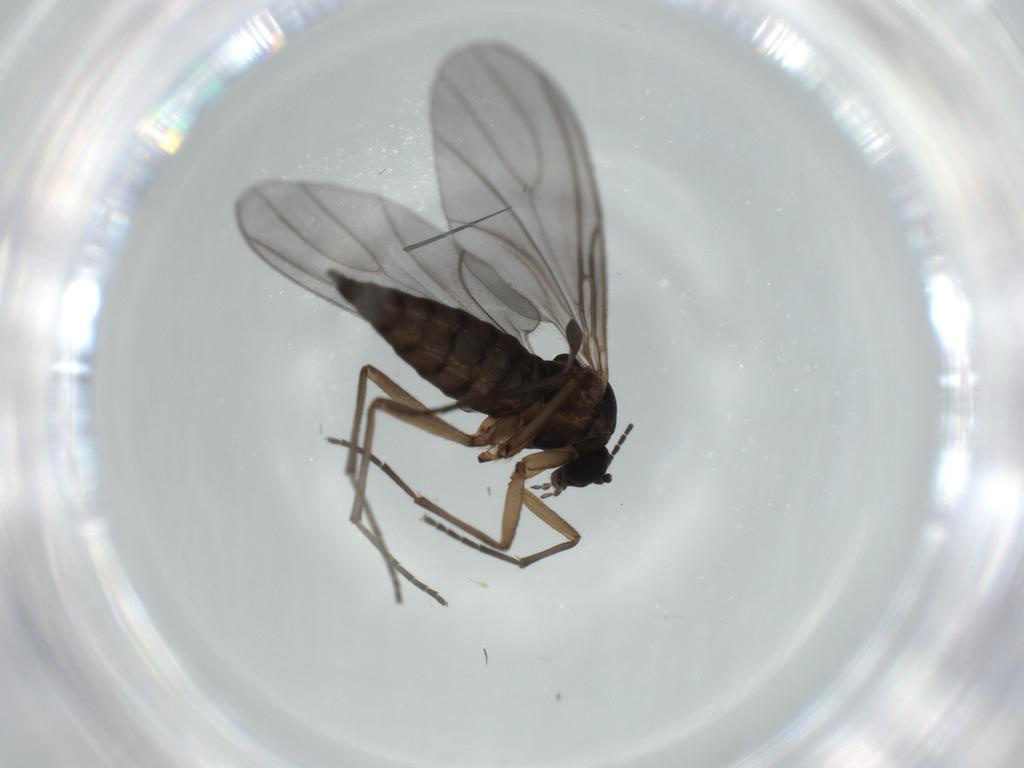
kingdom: Animalia
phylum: Arthropoda
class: Insecta
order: Diptera
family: Sciaridae
